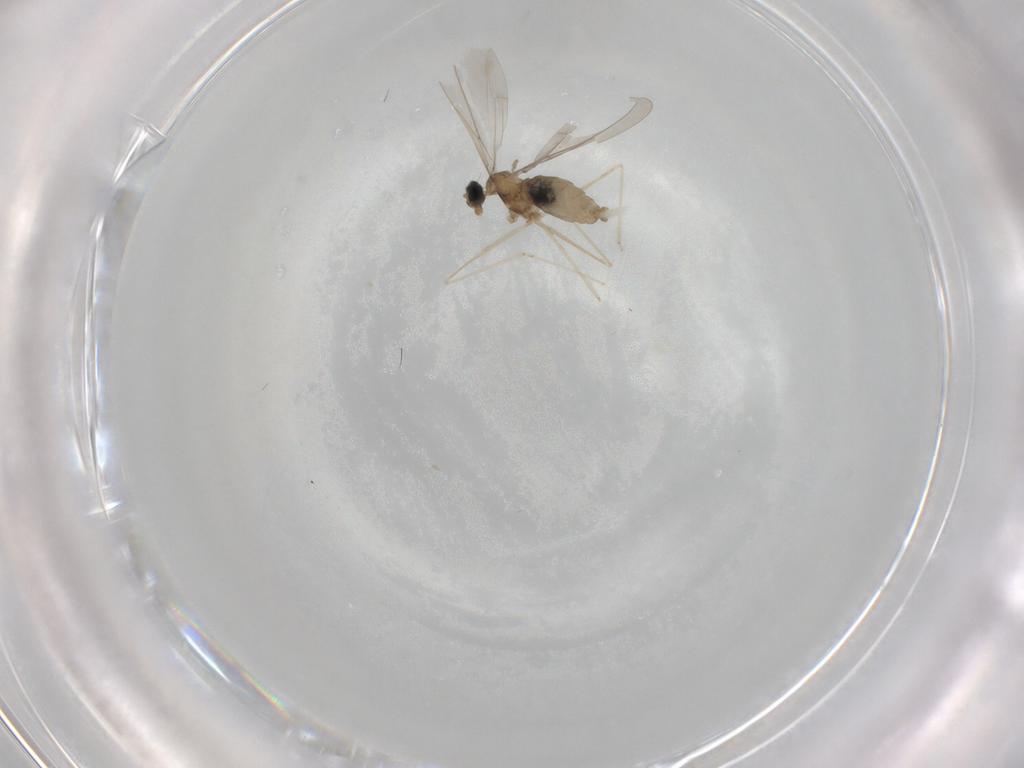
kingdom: Animalia
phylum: Arthropoda
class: Insecta
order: Diptera
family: Cecidomyiidae
